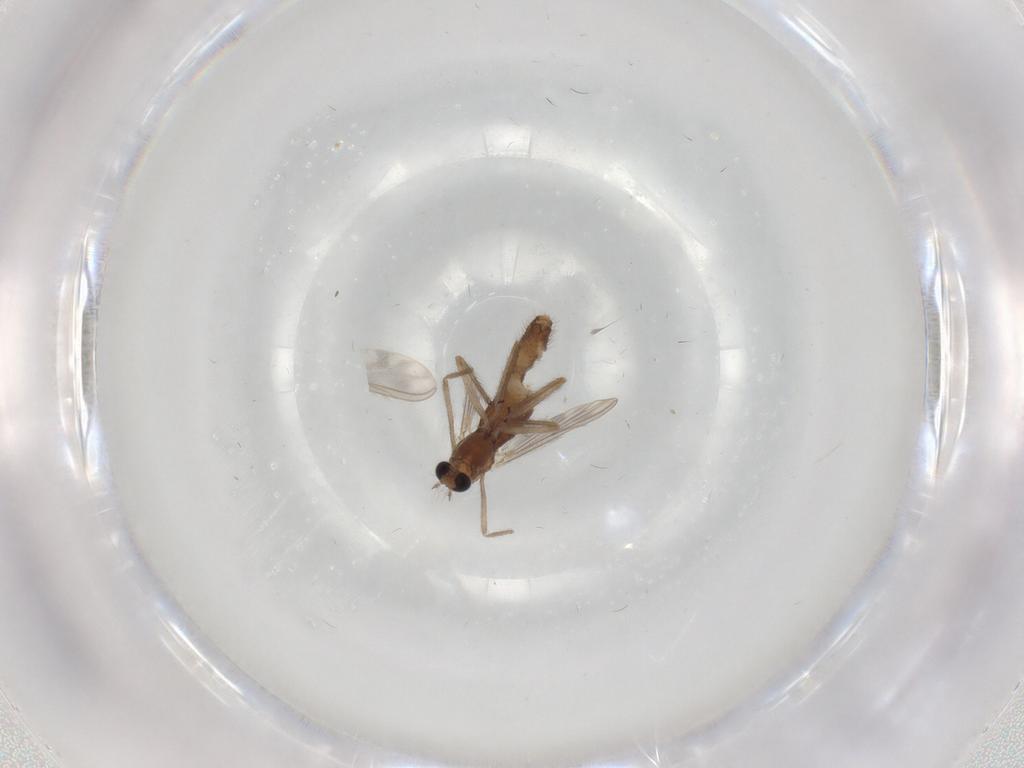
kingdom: Animalia
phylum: Arthropoda
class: Insecta
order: Diptera
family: Chironomidae
